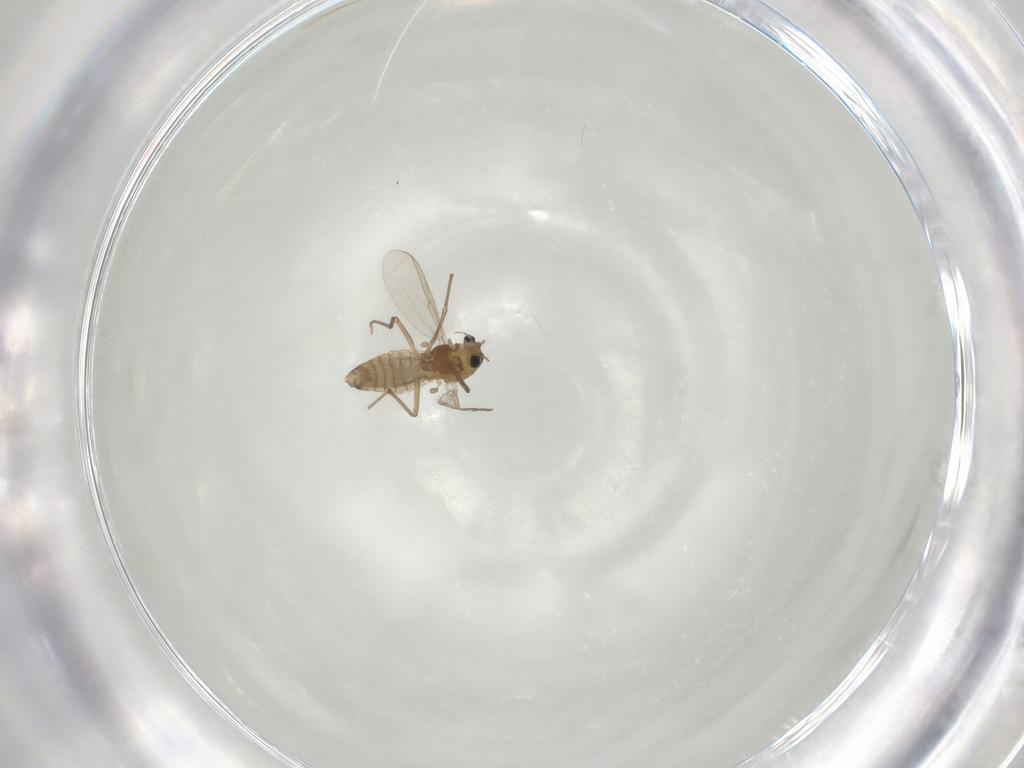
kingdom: Animalia
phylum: Arthropoda
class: Insecta
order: Diptera
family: Chironomidae
